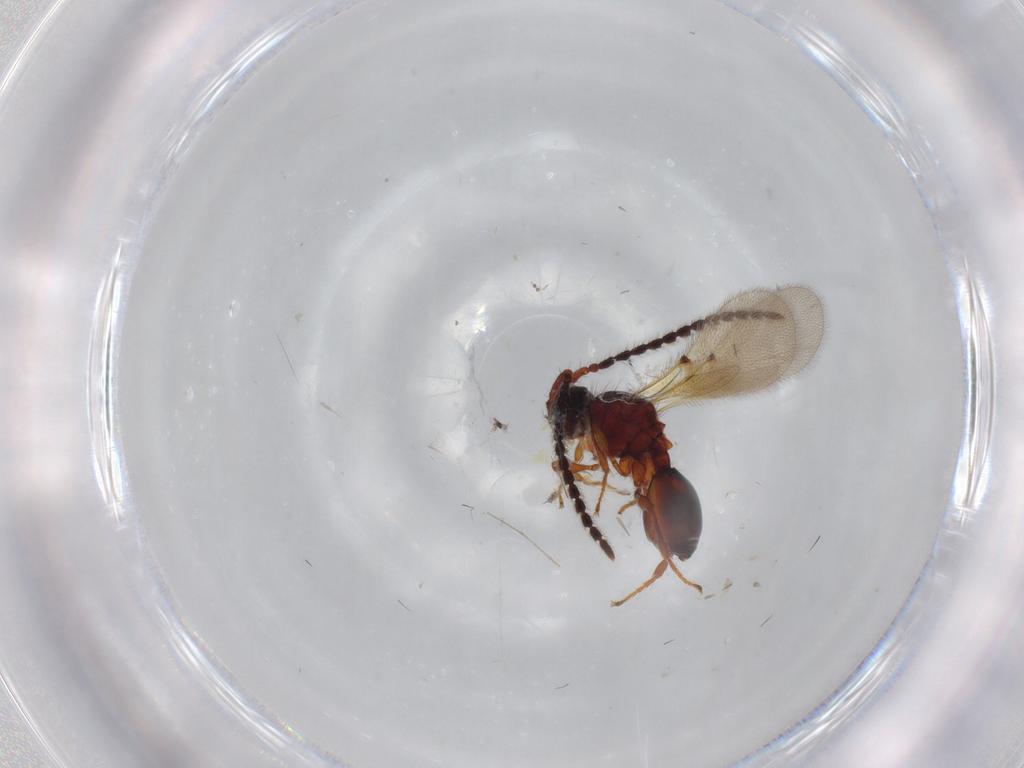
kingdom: Animalia
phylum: Arthropoda
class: Insecta
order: Hymenoptera
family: Diapriidae
